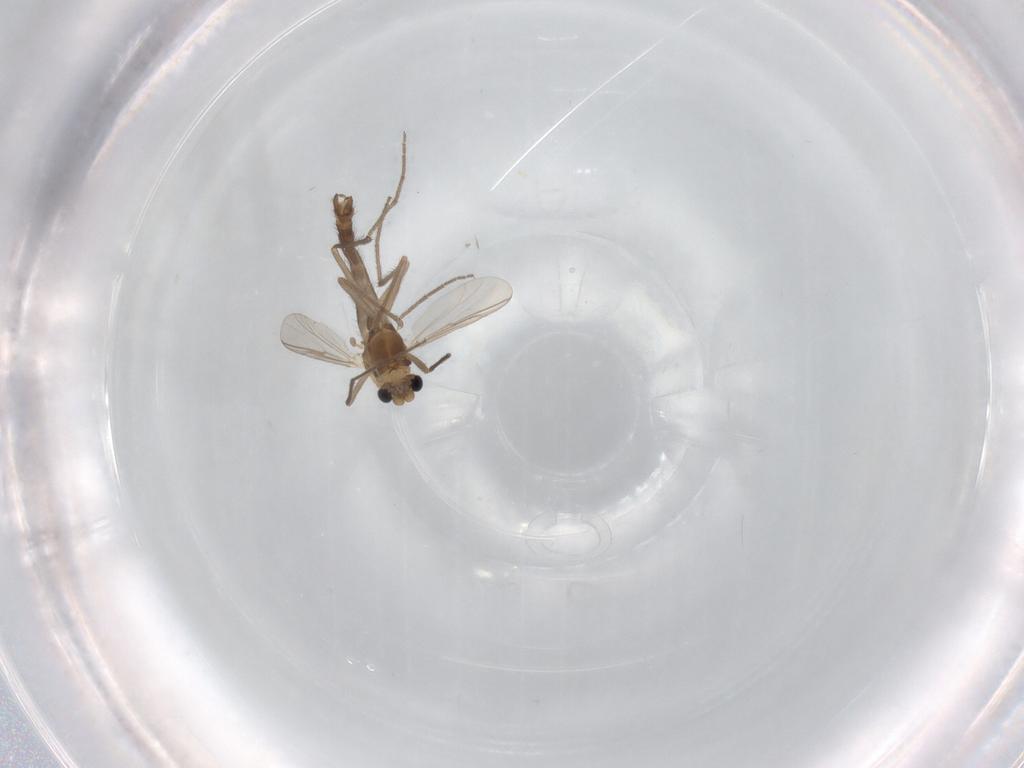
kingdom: Animalia
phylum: Arthropoda
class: Insecta
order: Diptera
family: Chironomidae
